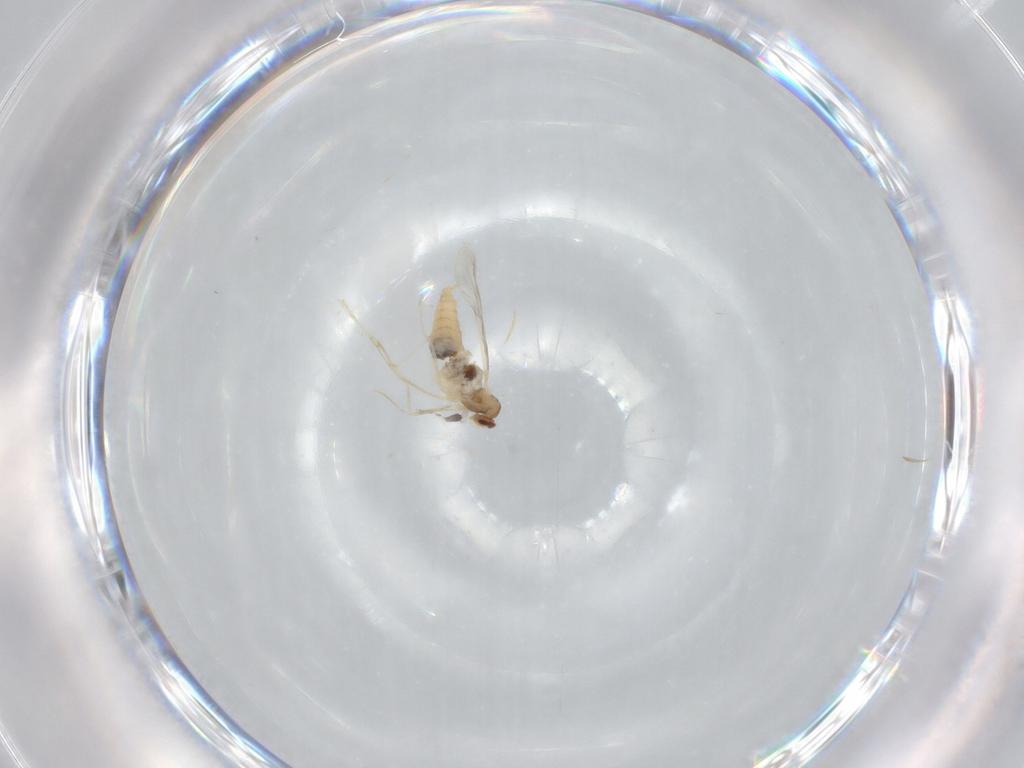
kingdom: Animalia
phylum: Arthropoda
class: Insecta
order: Diptera
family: Cecidomyiidae
